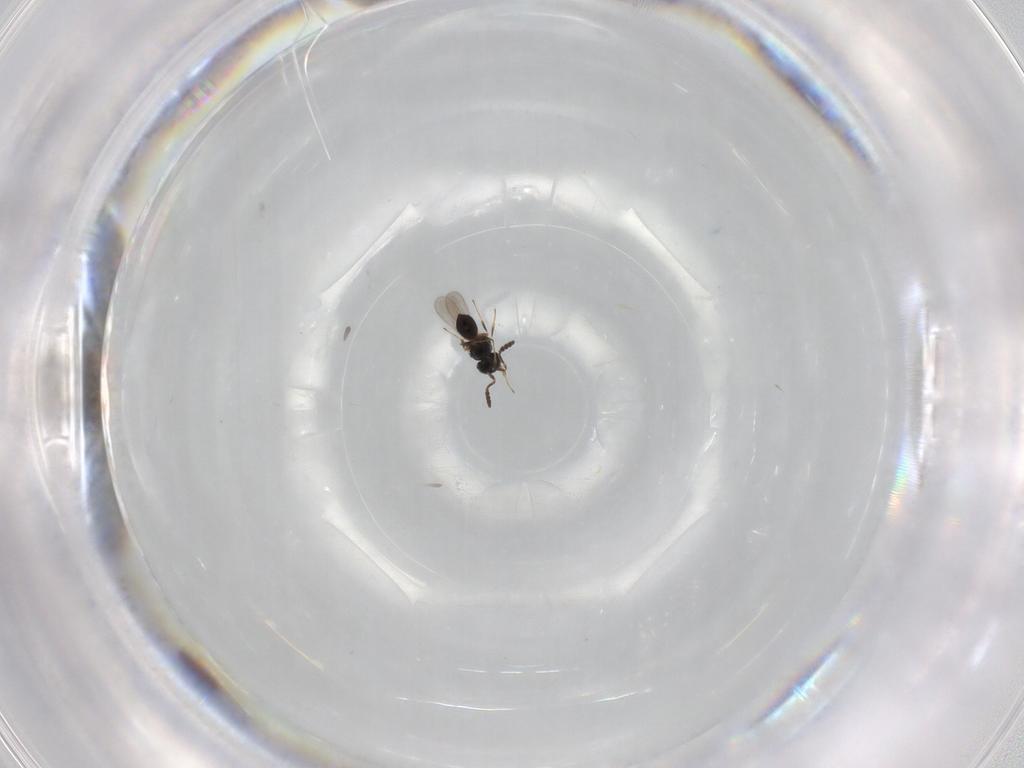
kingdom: Animalia
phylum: Arthropoda
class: Insecta
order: Hymenoptera
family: Scelionidae
